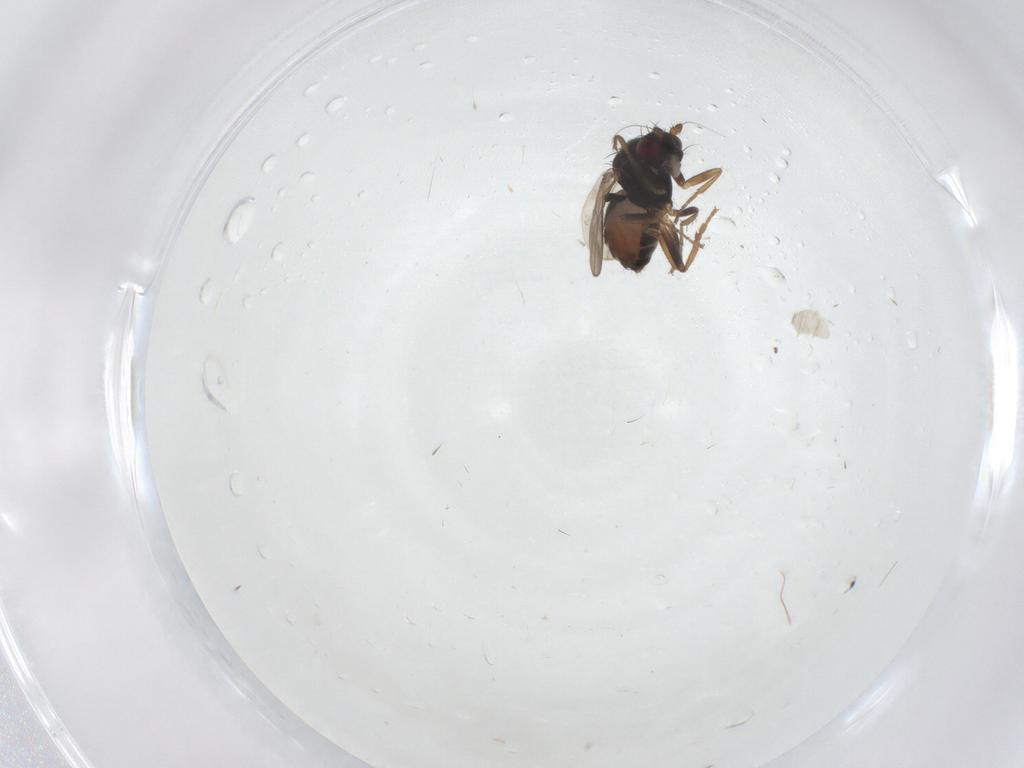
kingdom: Animalia
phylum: Arthropoda
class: Insecta
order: Diptera
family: Sphaeroceridae
